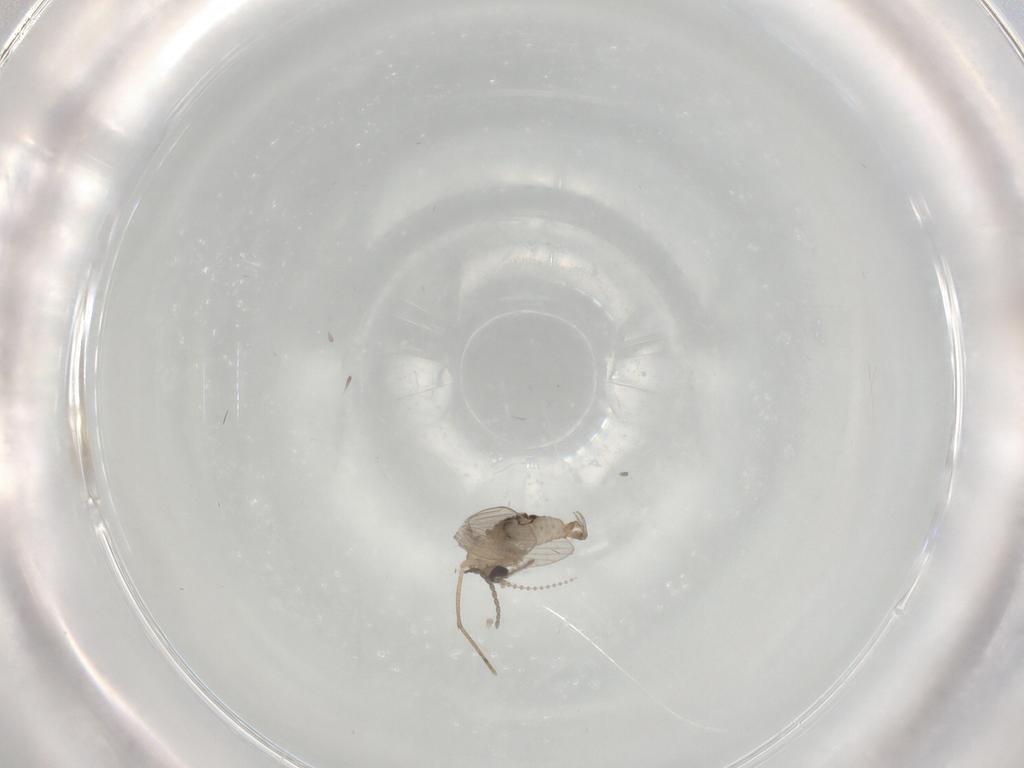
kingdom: Animalia
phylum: Arthropoda
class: Insecta
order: Diptera
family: Psychodidae
